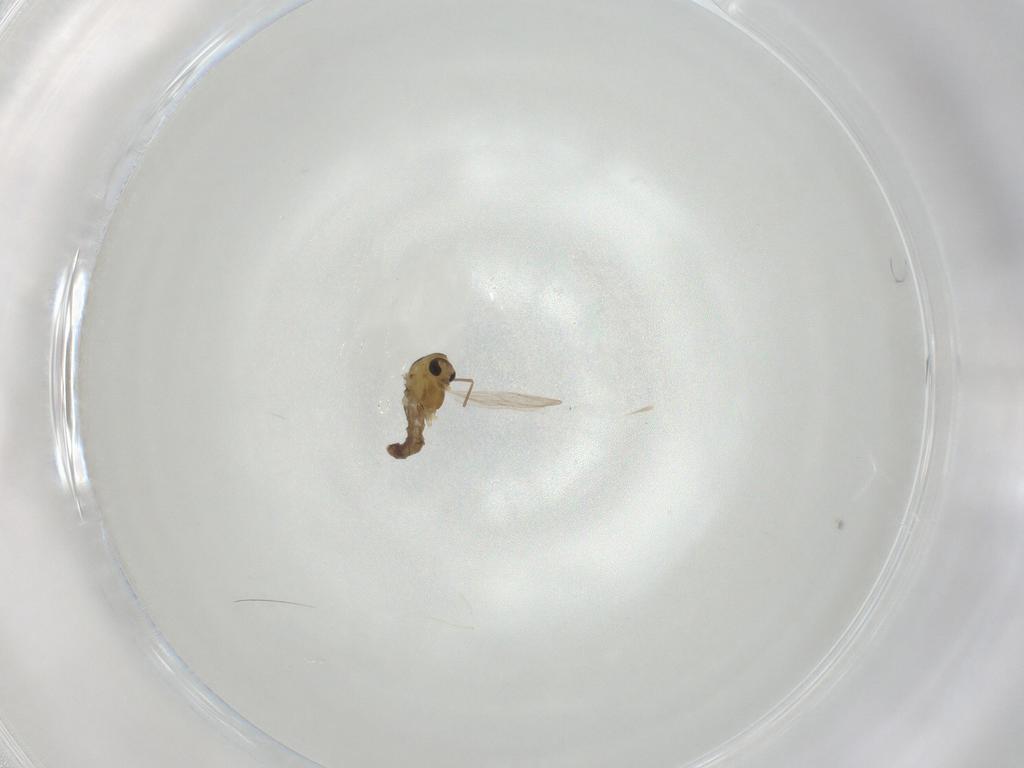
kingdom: Animalia
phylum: Arthropoda
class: Insecta
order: Diptera
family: Chironomidae
